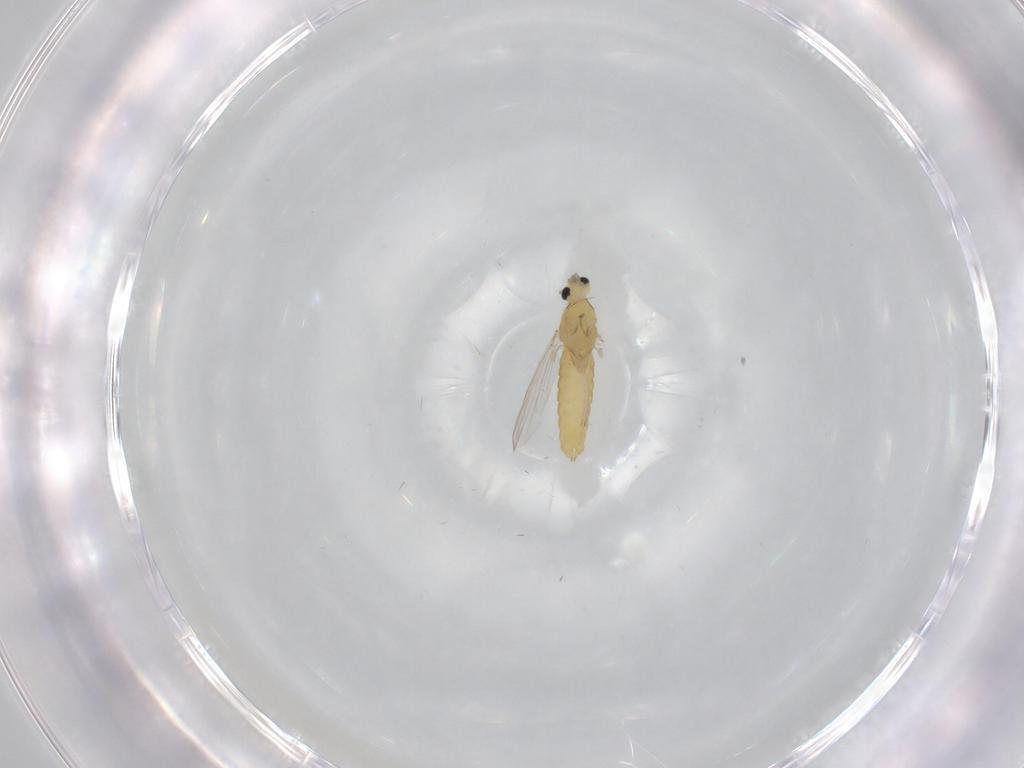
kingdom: Animalia
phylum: Arthropoda
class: Insecta
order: Diptera
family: Chironomidae
